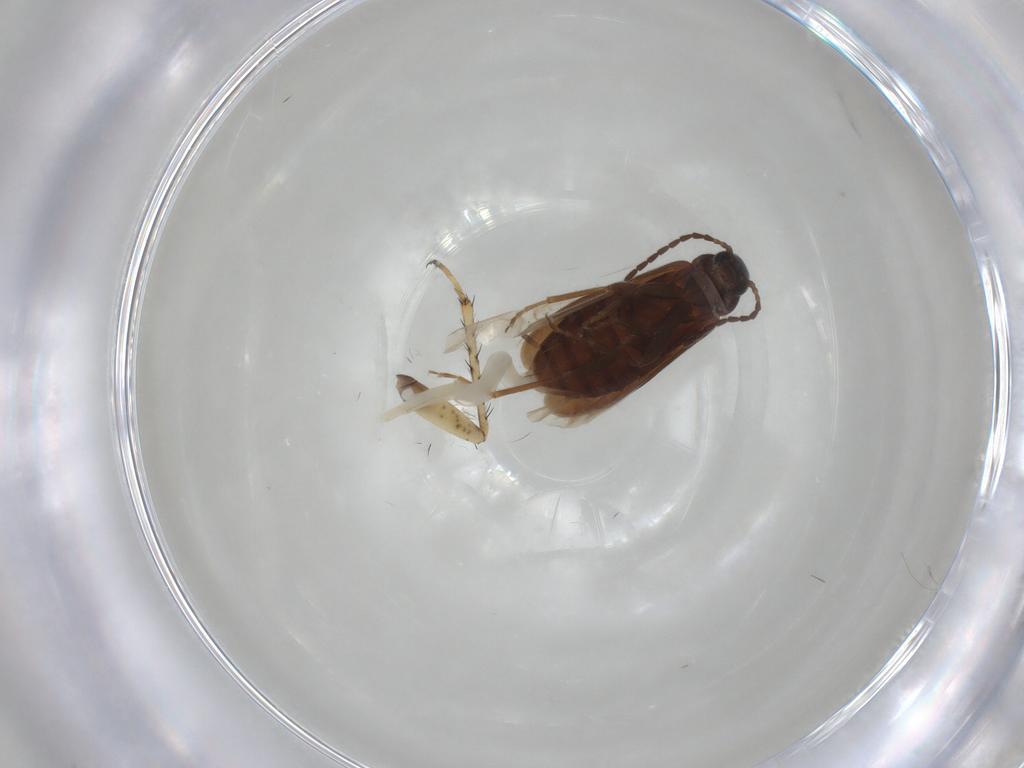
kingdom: Animalia
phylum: Arthropoda
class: Insecta
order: Coleoptera
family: Scraptiidae
